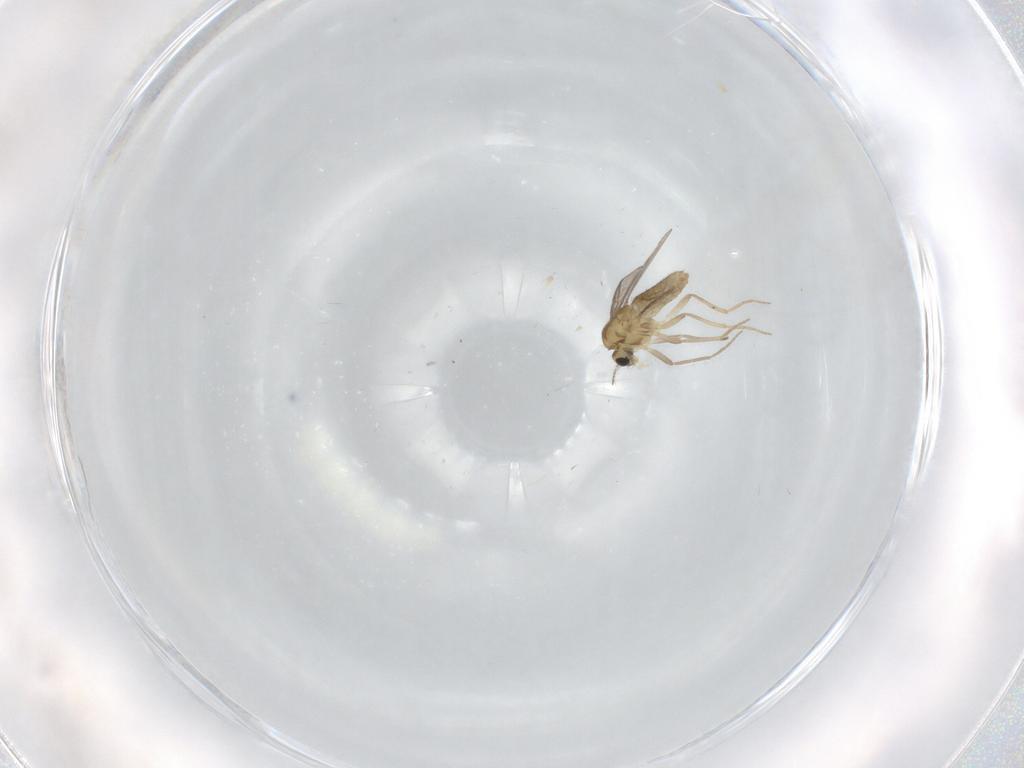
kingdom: Animalia
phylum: Arthropoda
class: Insecta
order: Diptera
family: Chironomidae
